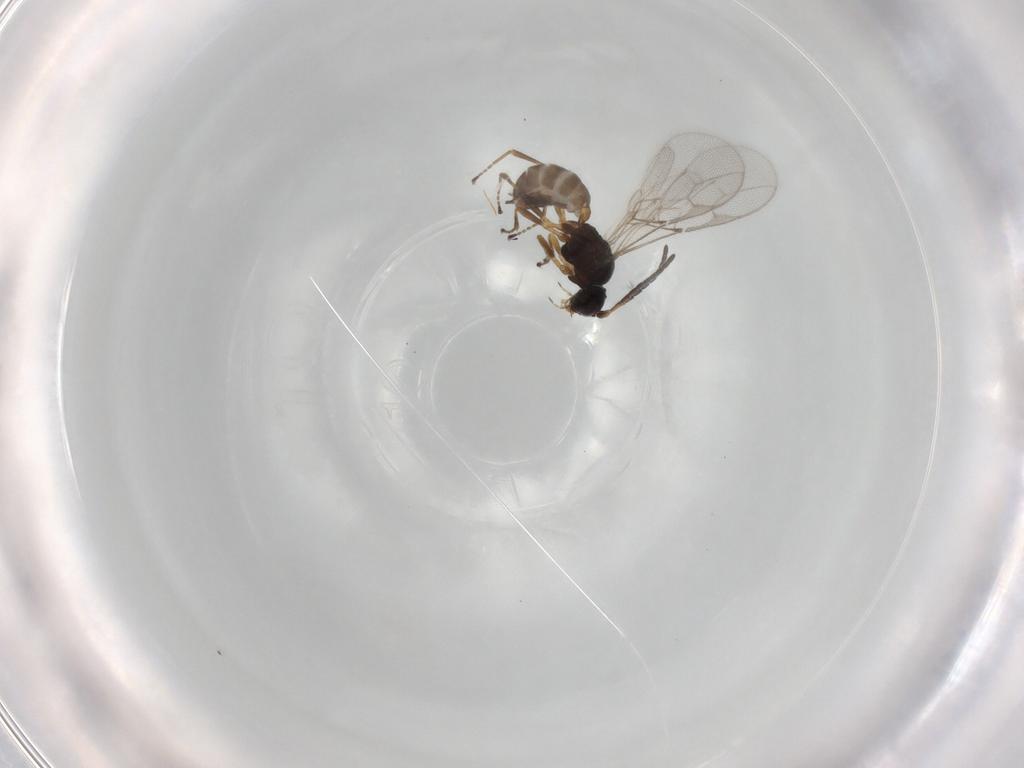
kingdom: Animalia
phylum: Arthropoda
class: Insecta
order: Hymenoptera
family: Braconidae
